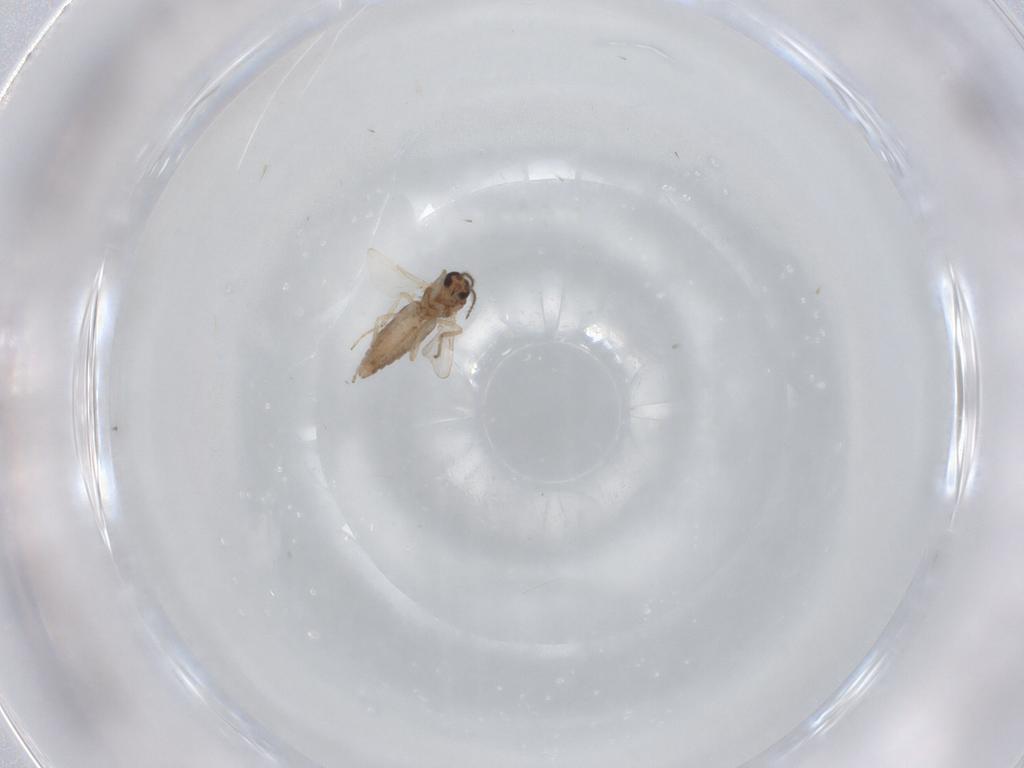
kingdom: Animalia
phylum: Arthropoda
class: Insecta
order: Diptera
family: Ceratopogonidae
